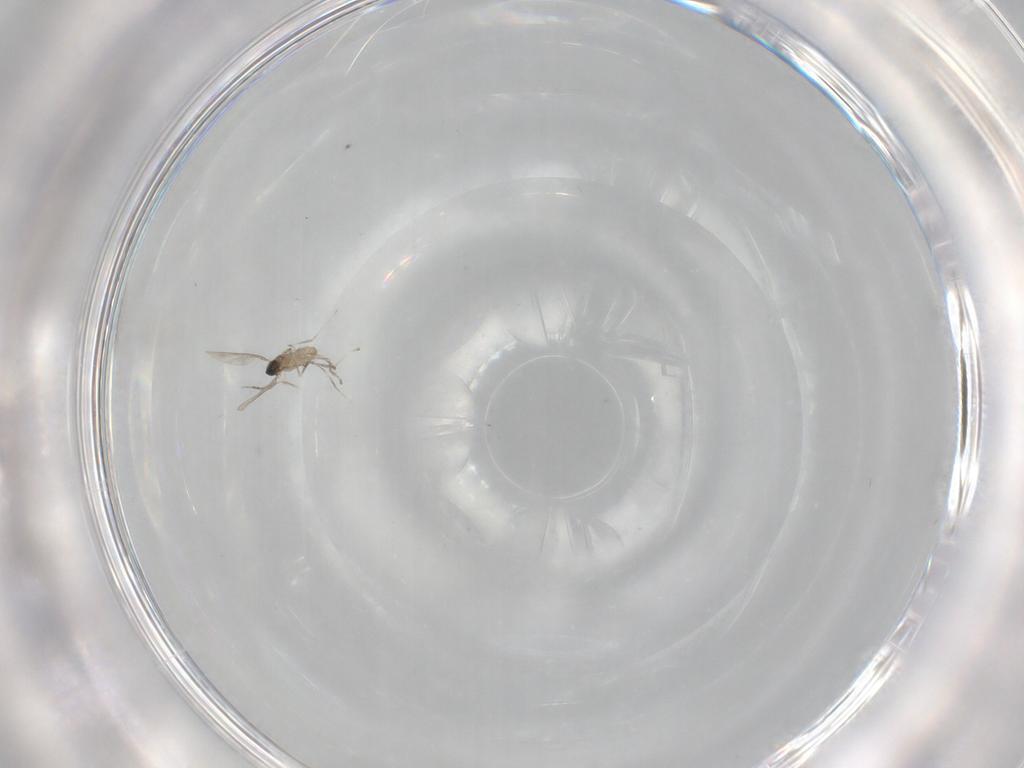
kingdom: Animalia
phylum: Arthropoda
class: Insecta
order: Diptera
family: Cecidomyiidae
